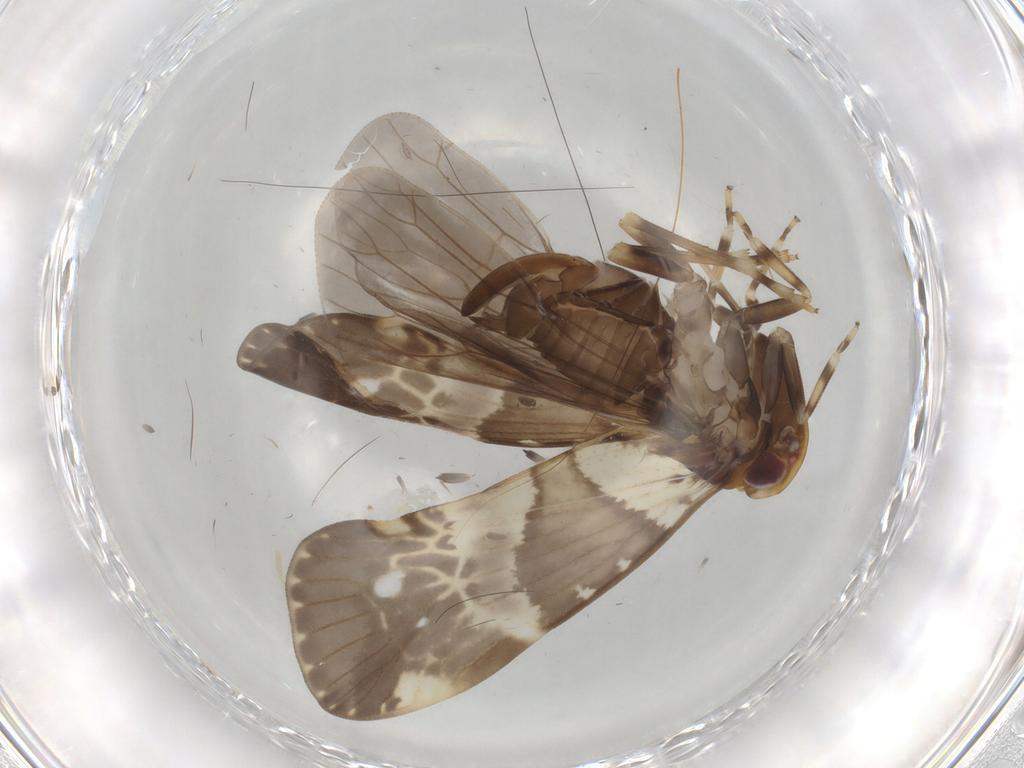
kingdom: Animalia
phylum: Arthropoda
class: Insecta
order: Hemiptera
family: Cixiidae
